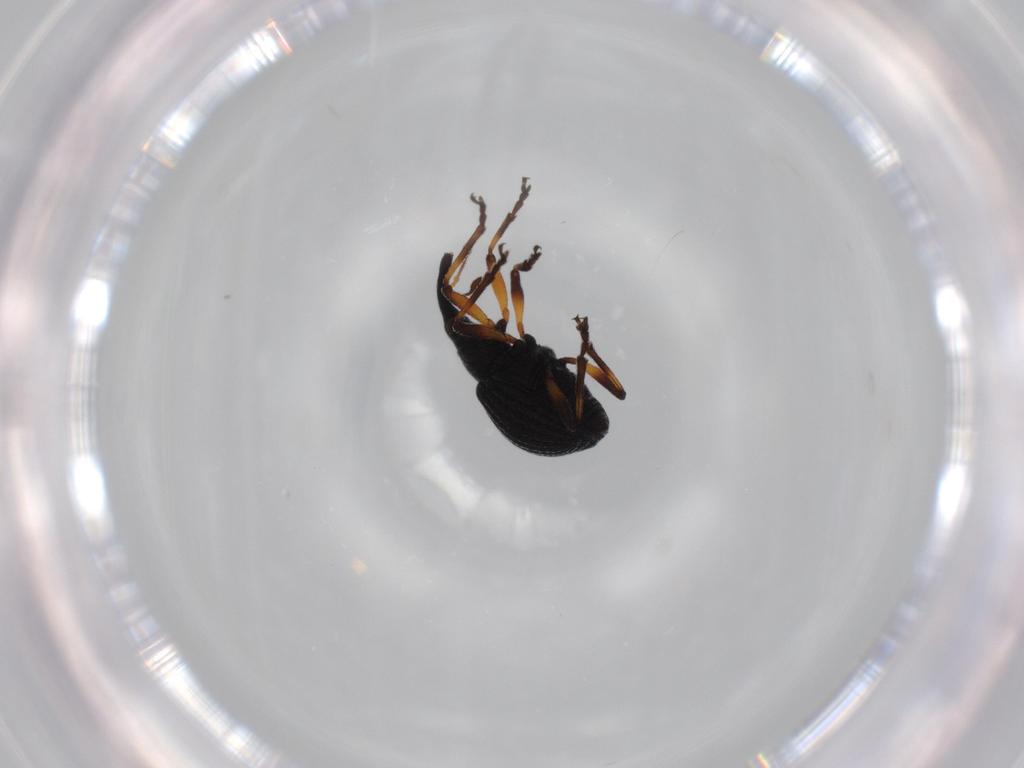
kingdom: Animalia
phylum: Arthropoda
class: Insecta
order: Coleoptera
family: Brentidae
